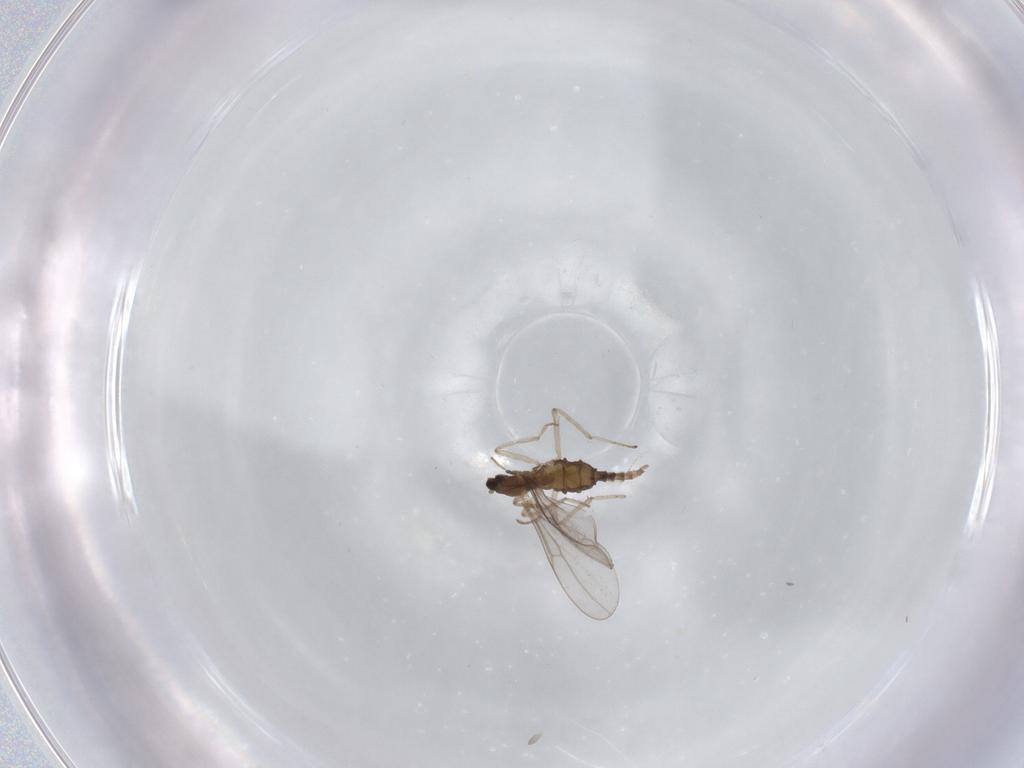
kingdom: Animalia
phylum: Arthropoda
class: Insecta
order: Diptera
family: Cecidomyiidae
